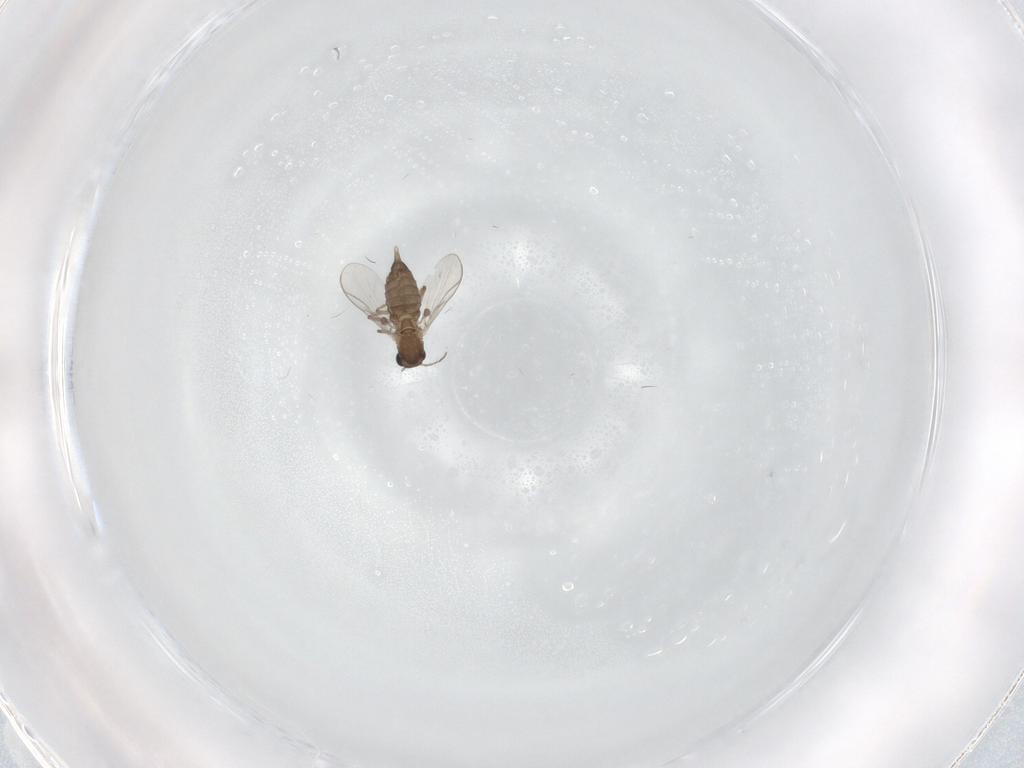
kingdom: Animalia
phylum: Arthropoda
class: Insecta
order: Diptera
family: Chironomidae
